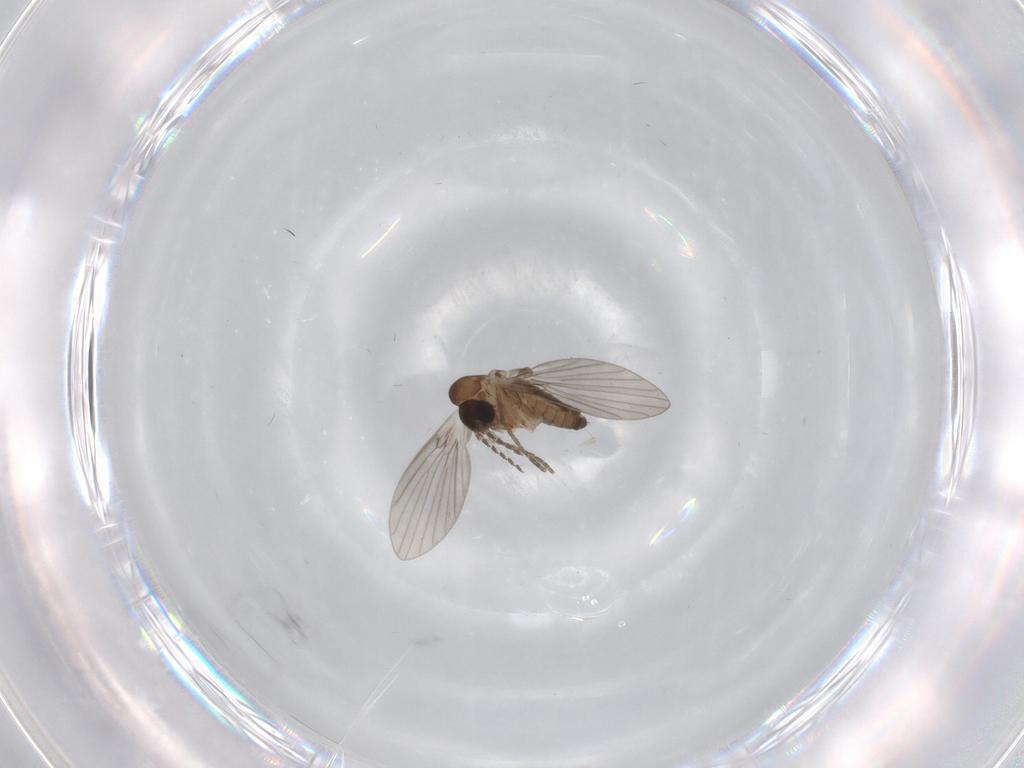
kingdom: Animalia
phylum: Arthropoda
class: Insecta
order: Diptera
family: Psychodidae
